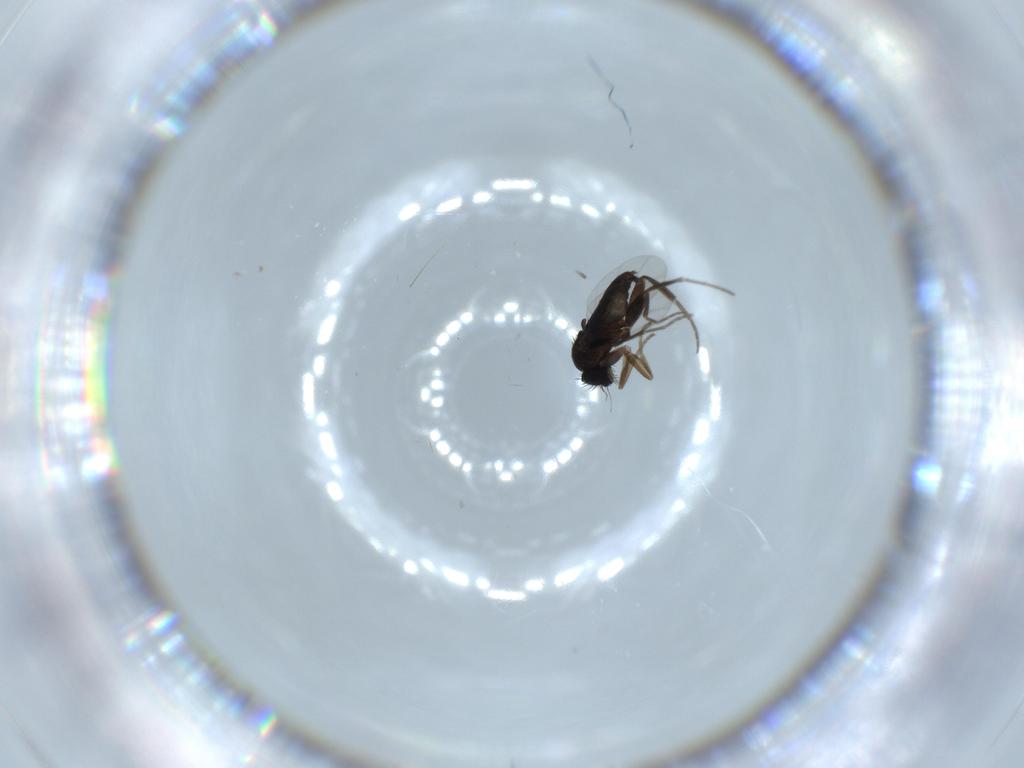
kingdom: Animalia
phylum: Arthropoda
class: Insecta
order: Diptera
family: Phoridae
